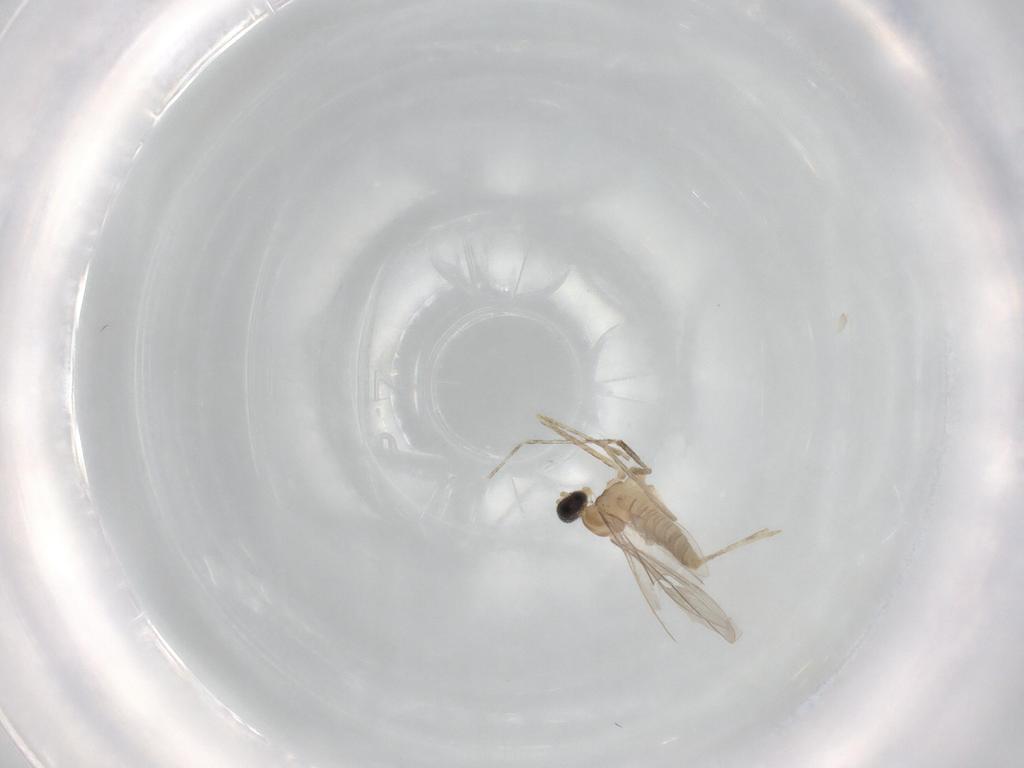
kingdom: Animalia
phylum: Arthropoda
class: Insecta
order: Diptera
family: Cecidomyiidae
